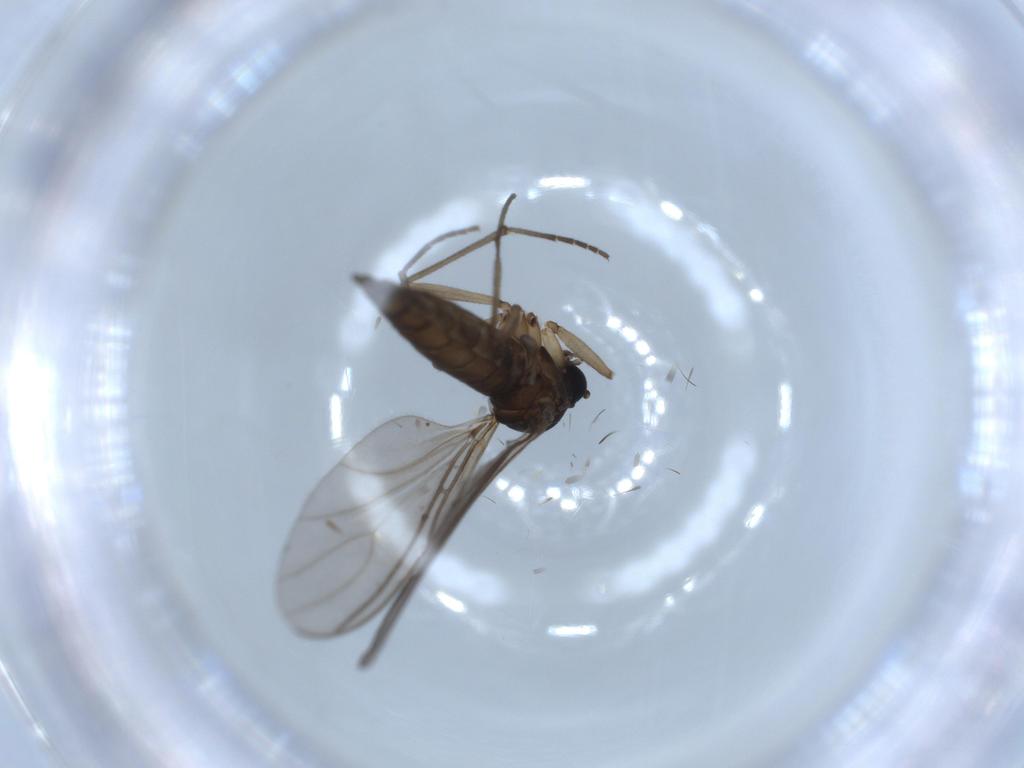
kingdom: Animalia
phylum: Arthropoda
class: Insecta
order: Diptera
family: Sciaridae
